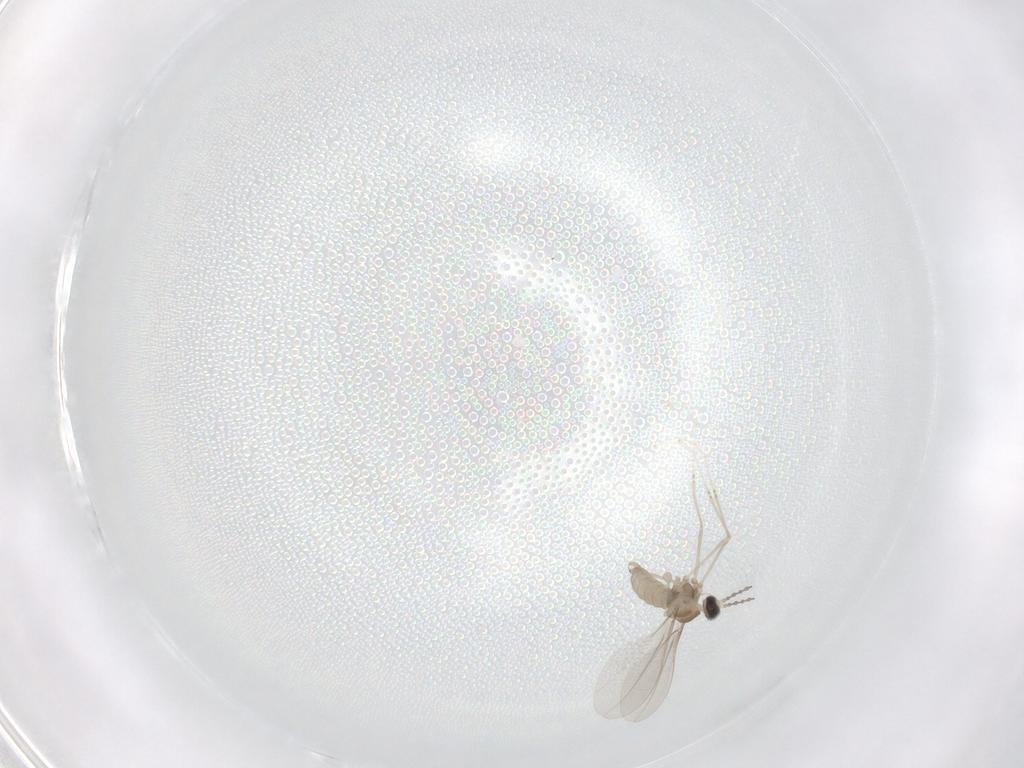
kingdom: Animalia
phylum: Arthropoda
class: Insecta
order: Diptera
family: Cecidomyiidae
